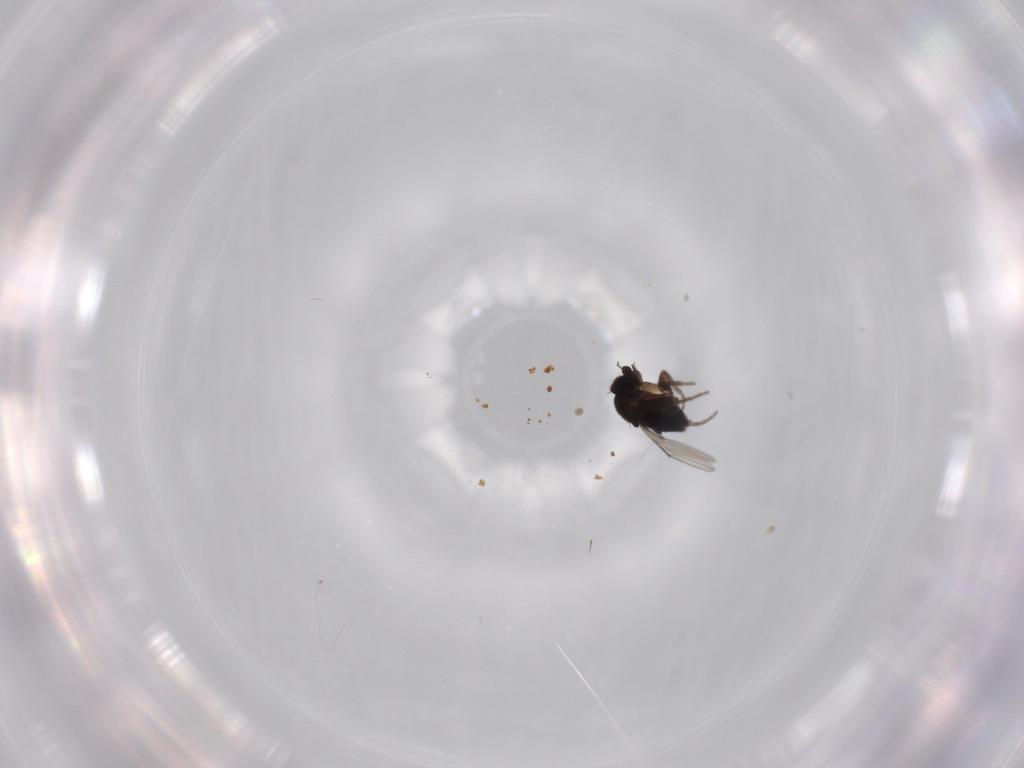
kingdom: Animalia
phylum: Arthropoda
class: Insecta
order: Diptera
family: Phoridae
